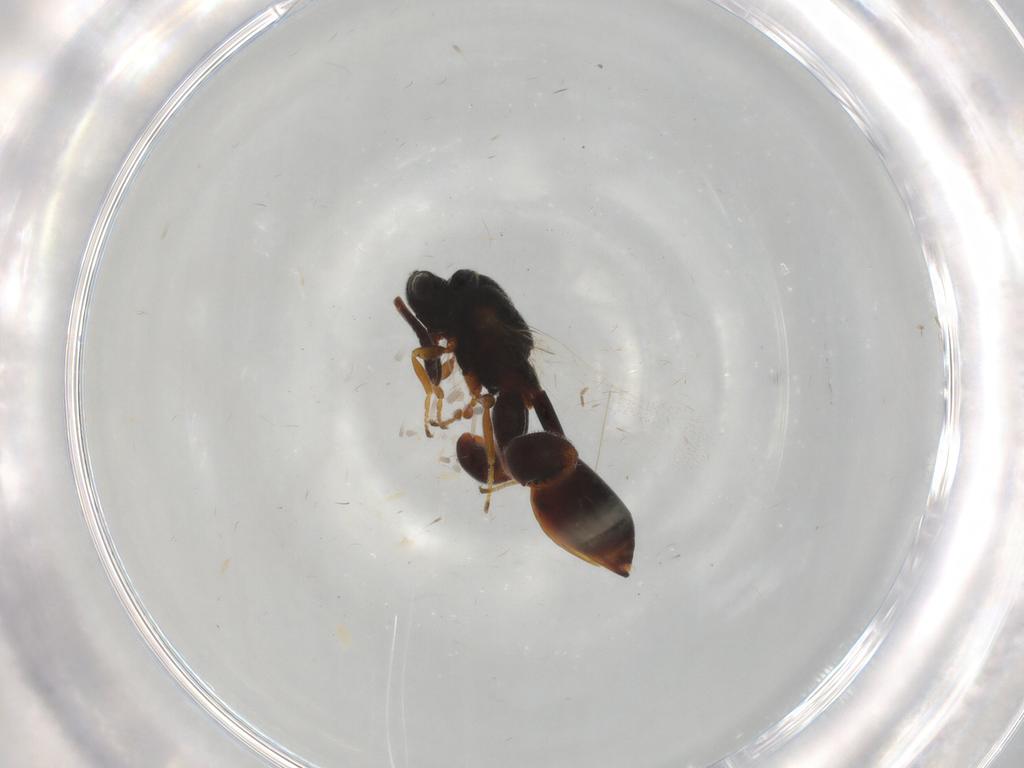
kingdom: Animalia
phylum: Arthropoda
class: Insecta
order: Hymenoptera
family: Chalcididae
